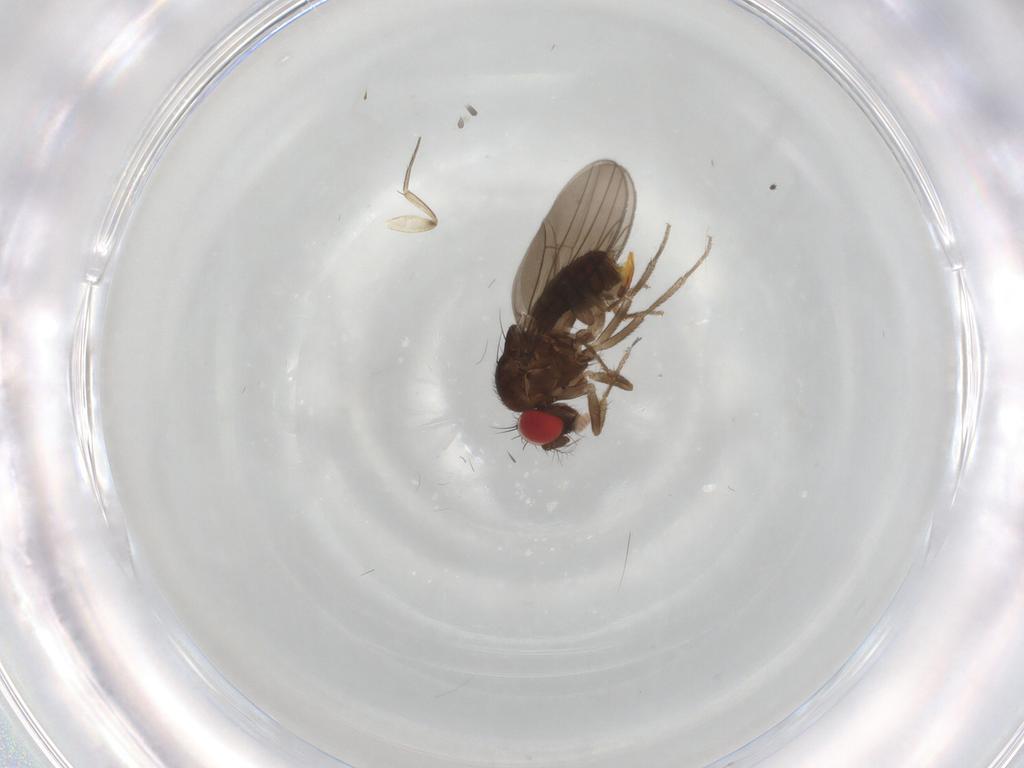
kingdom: Animalia
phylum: Arthropoda
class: Insecta
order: Diptera
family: Drosophilidae
